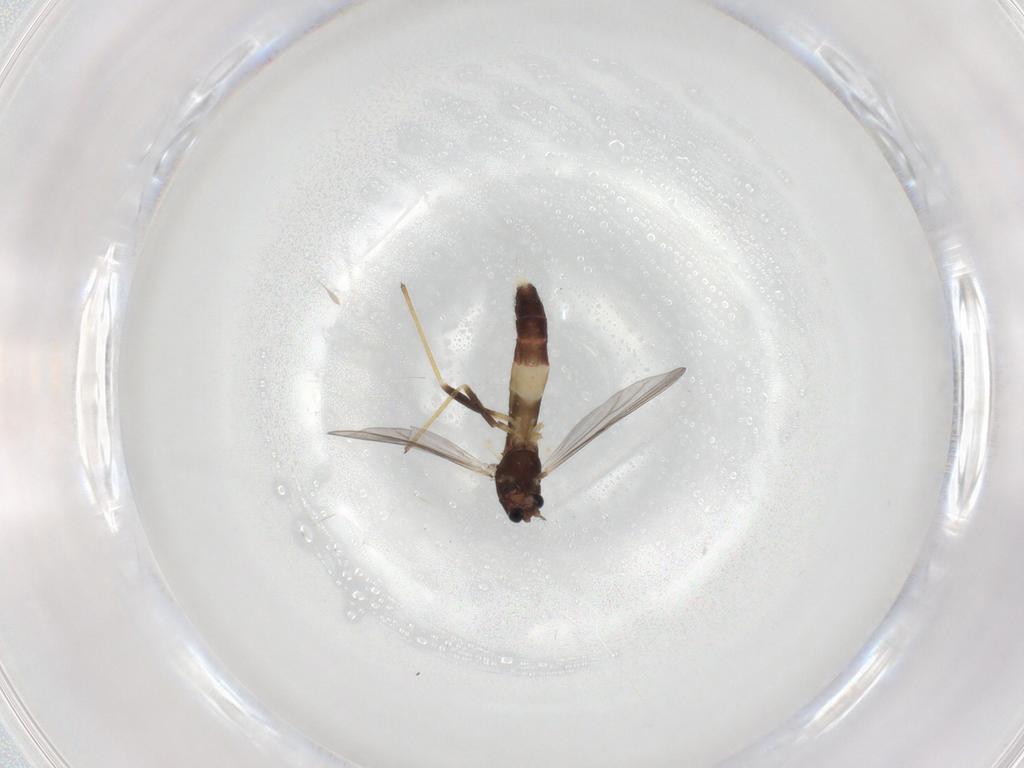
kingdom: Animalia
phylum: Arthropoda
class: Insecta
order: Diptera
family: Chironomidae
